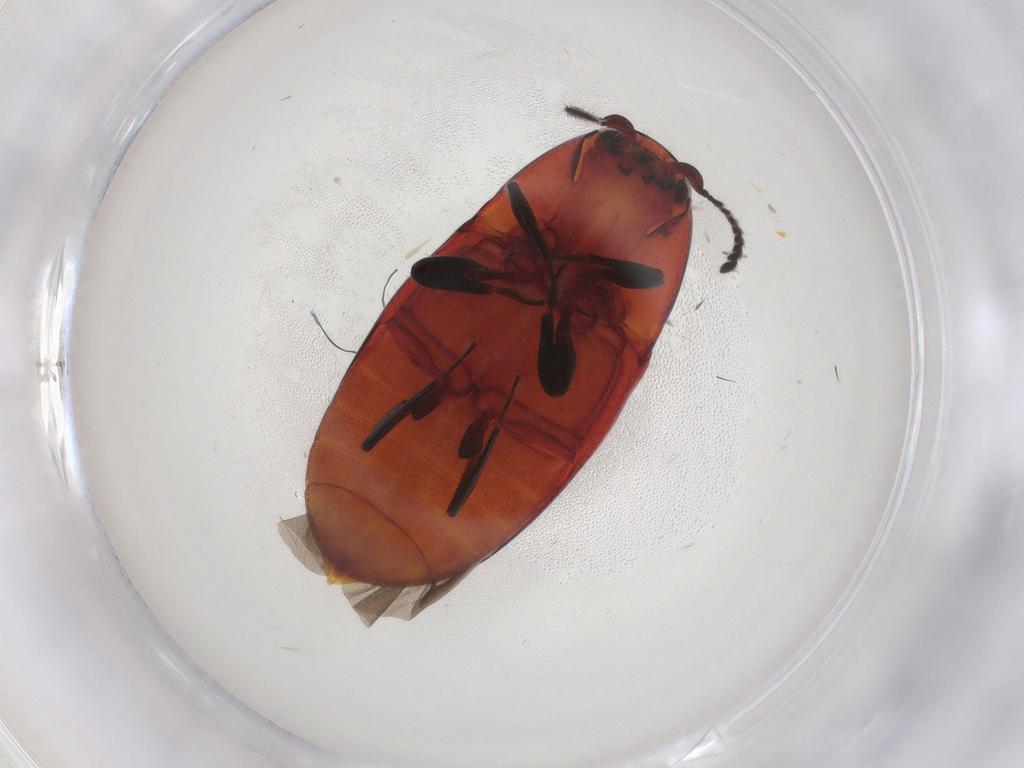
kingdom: Animalia
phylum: Arthropoda
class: Insecta
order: Coleoptera
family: Elateridae
